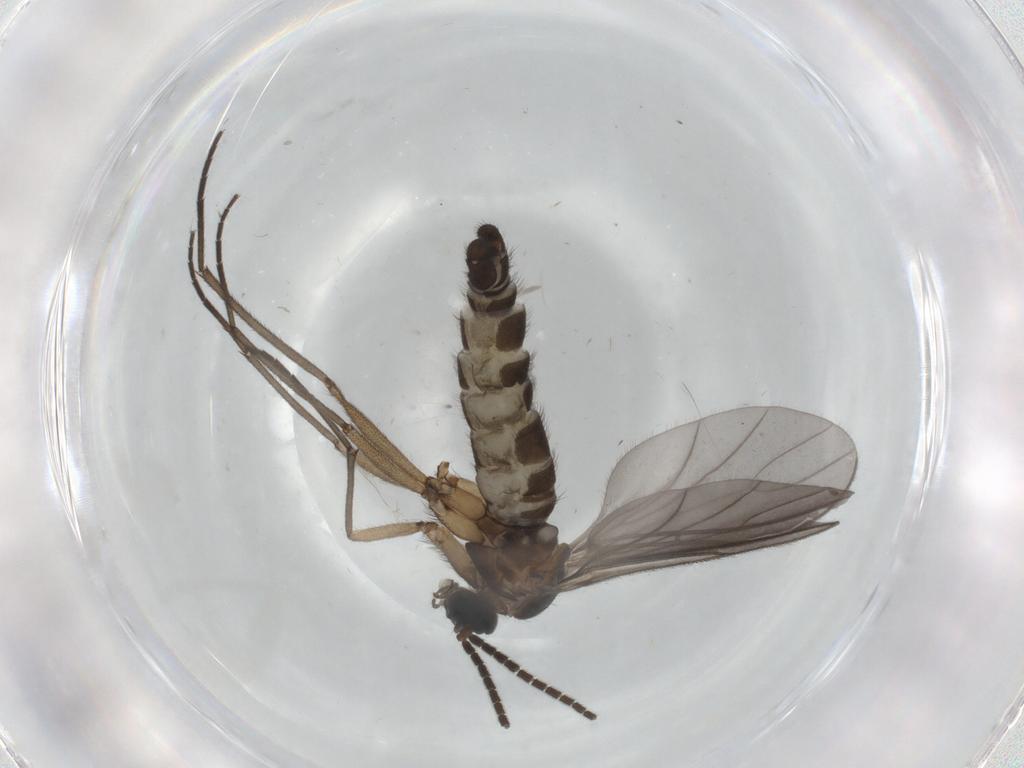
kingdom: Animalia
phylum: Arthropoda
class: Insecta
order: Diptera
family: Sciaridae
